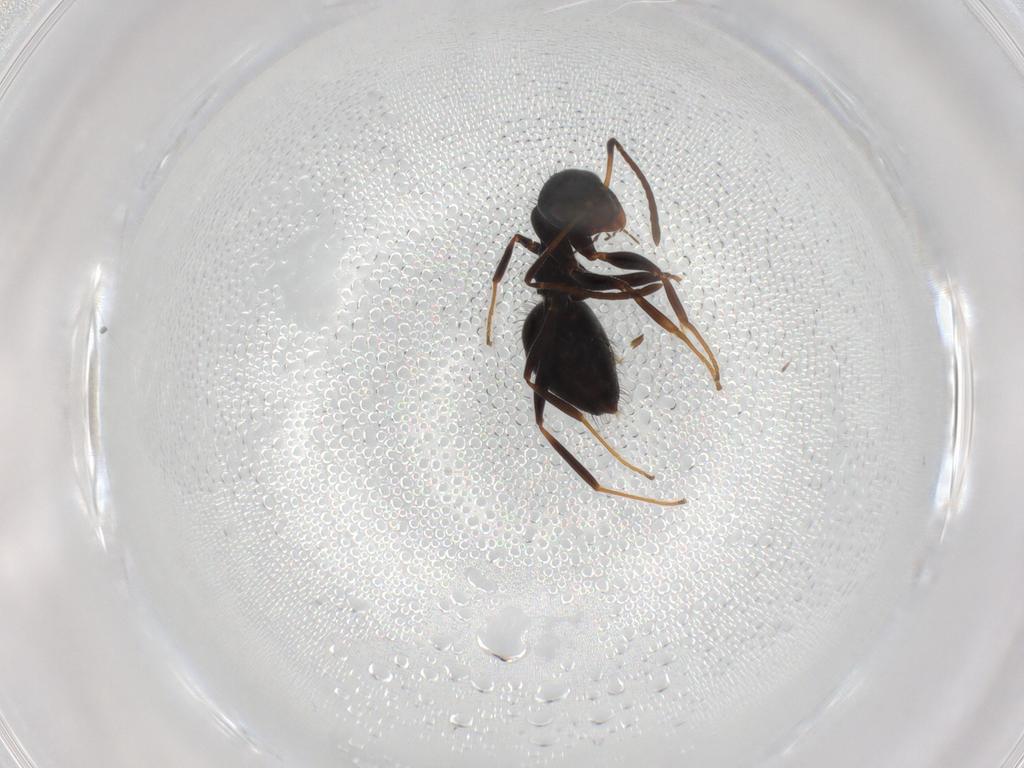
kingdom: Animalia
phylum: Arthropoda
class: Insecta
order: Hymenoptera
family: Formicidae
